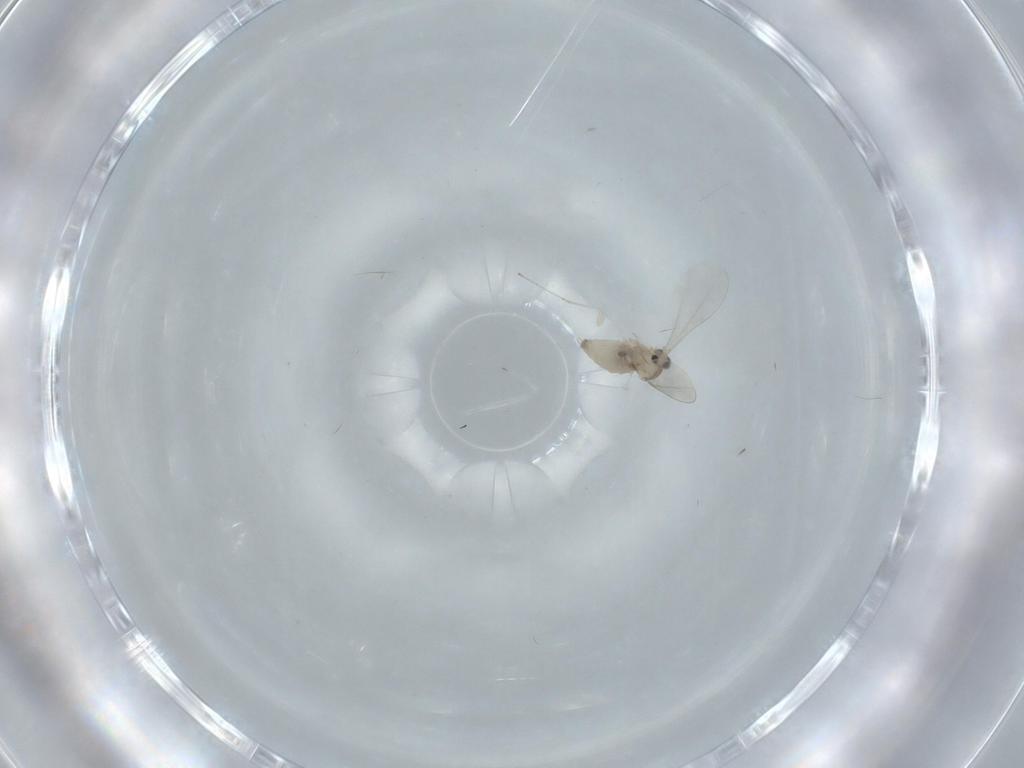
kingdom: Animalia
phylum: Arthropoda
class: Insecta
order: Diptera
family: Cecidomyiidae
